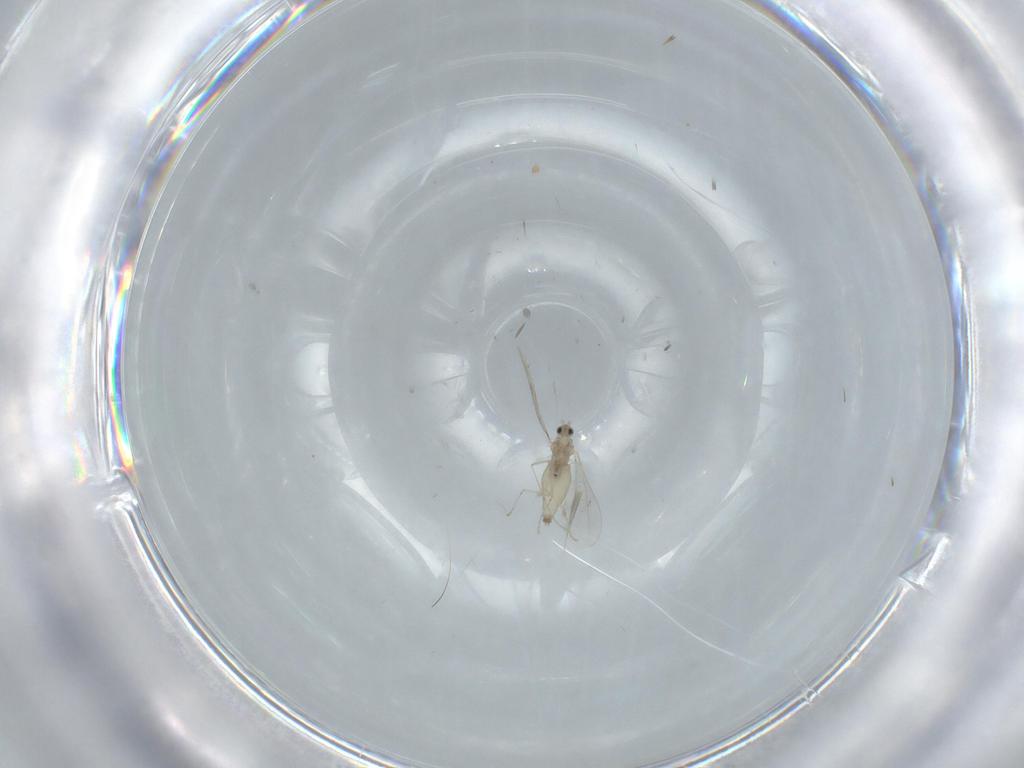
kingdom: Animalia
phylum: Arthropoda
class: Insecta
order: Diptera
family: Cecidomyiidae
